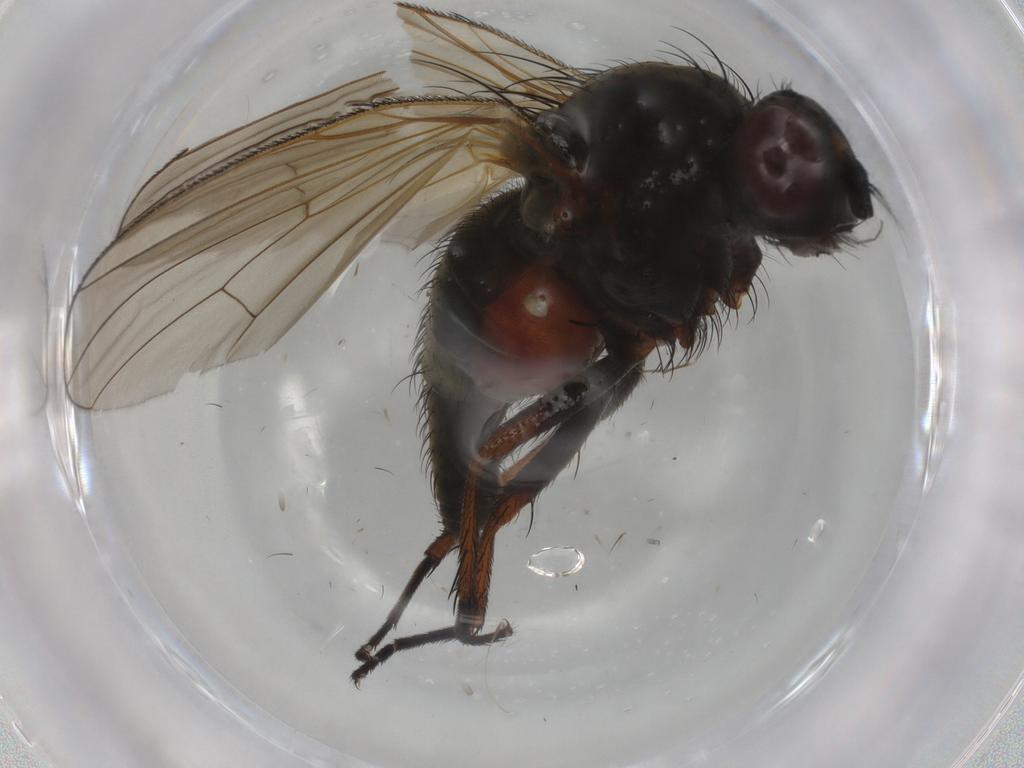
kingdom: Animalia
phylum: Arthropoda
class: Insecta
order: Diptera
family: Anthomyiidae
